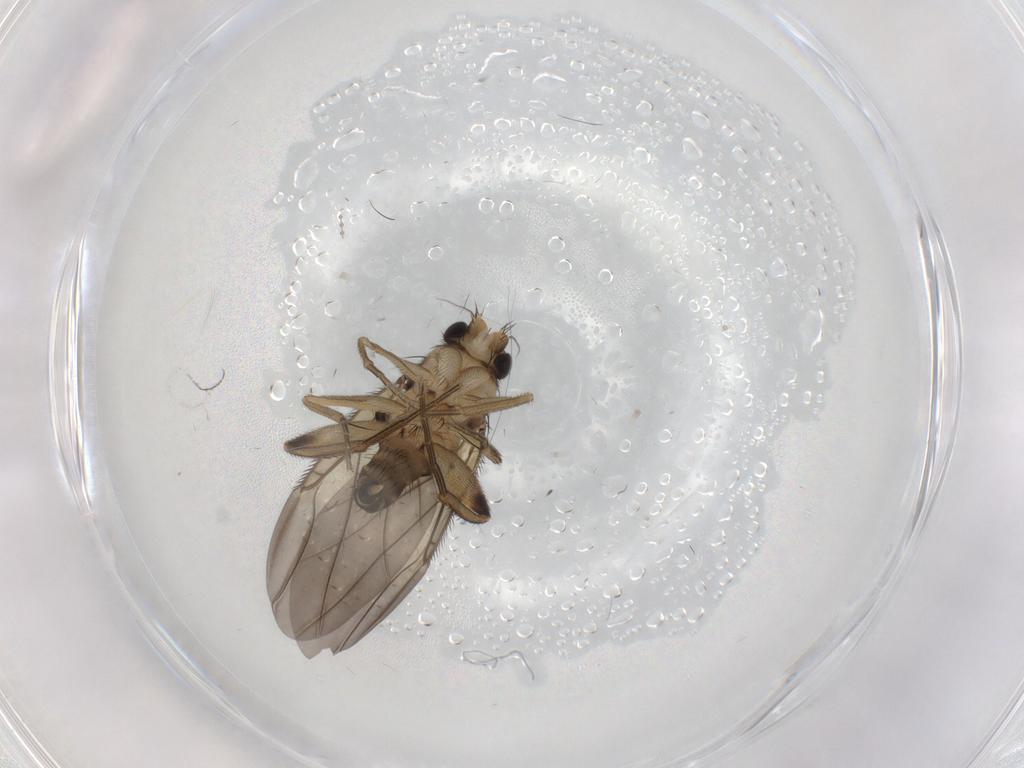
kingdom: Animalia
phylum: Arthropoda
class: Insecta
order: Diptera
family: Phoridae
